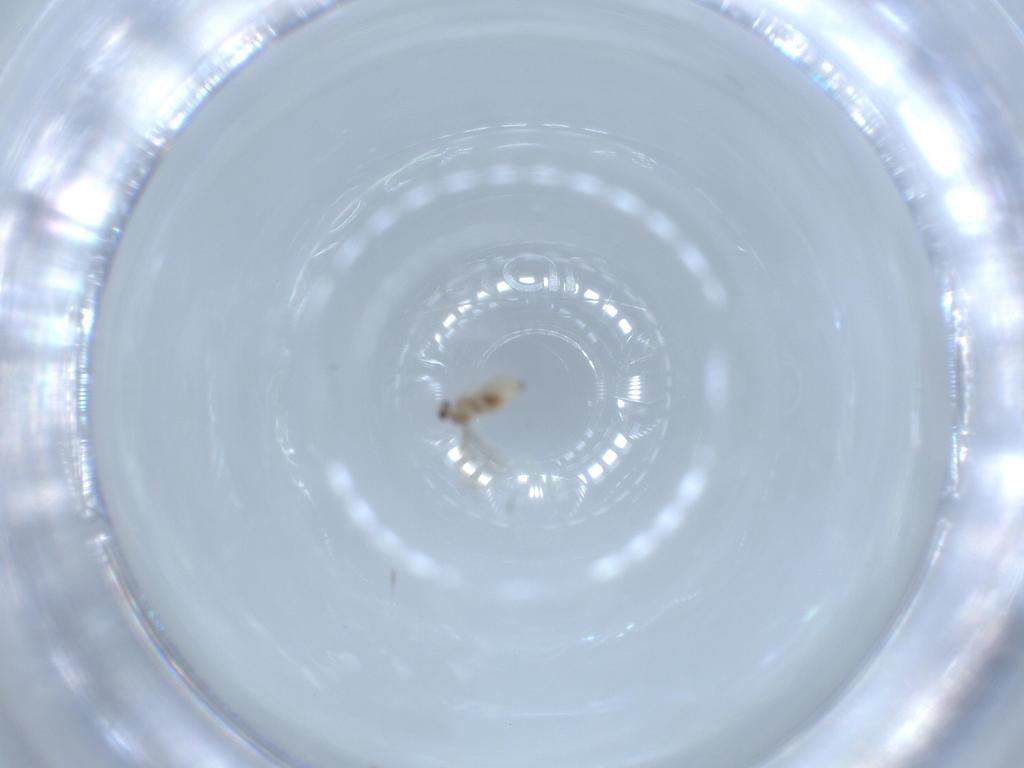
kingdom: Animalia
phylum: Arthropoda
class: Insecta
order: Diptera
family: Cecidomyiidae
